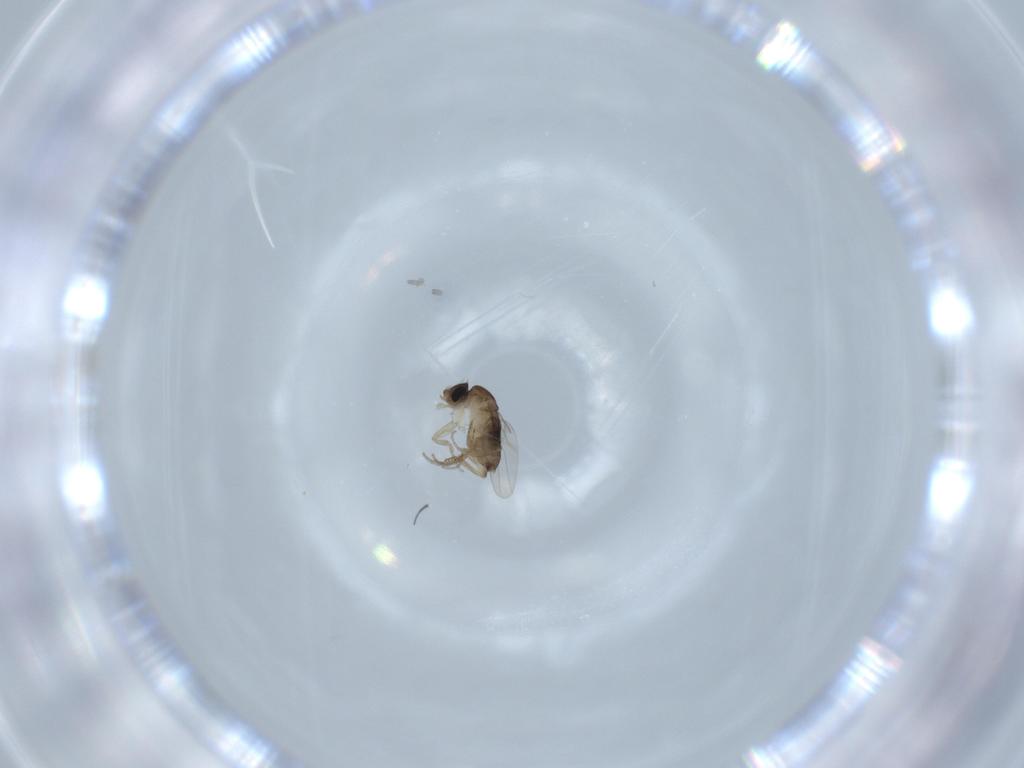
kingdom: Animalia
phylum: Arthropoda
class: Insecta
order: Diptera
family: Phoridae
